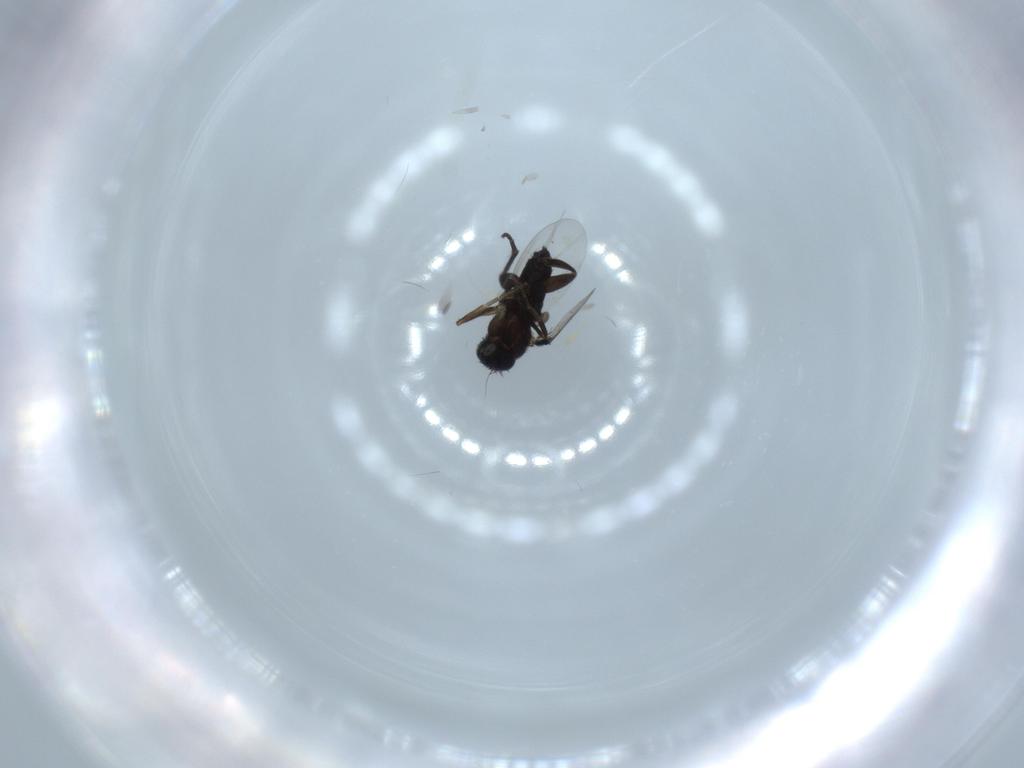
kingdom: Animalia
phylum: Arthropoda
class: Insecta
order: Diptera
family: Phoridae
